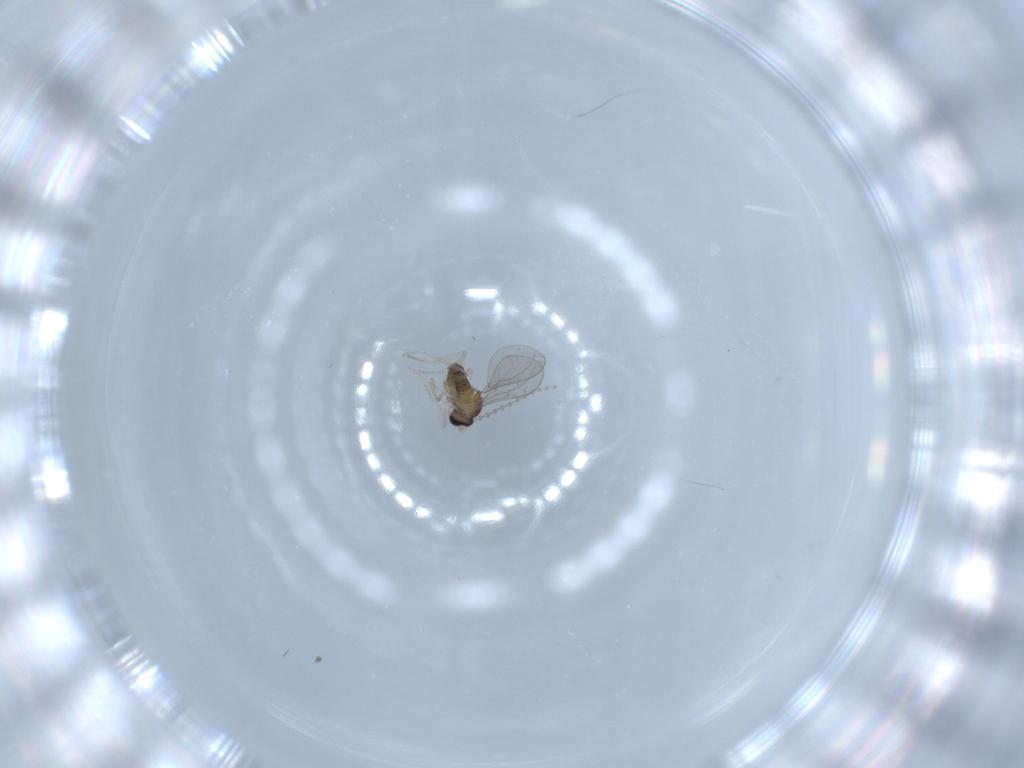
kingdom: Animalia
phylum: Arthropoda
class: Insecta
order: Diptera
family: Cecidomyiidae
